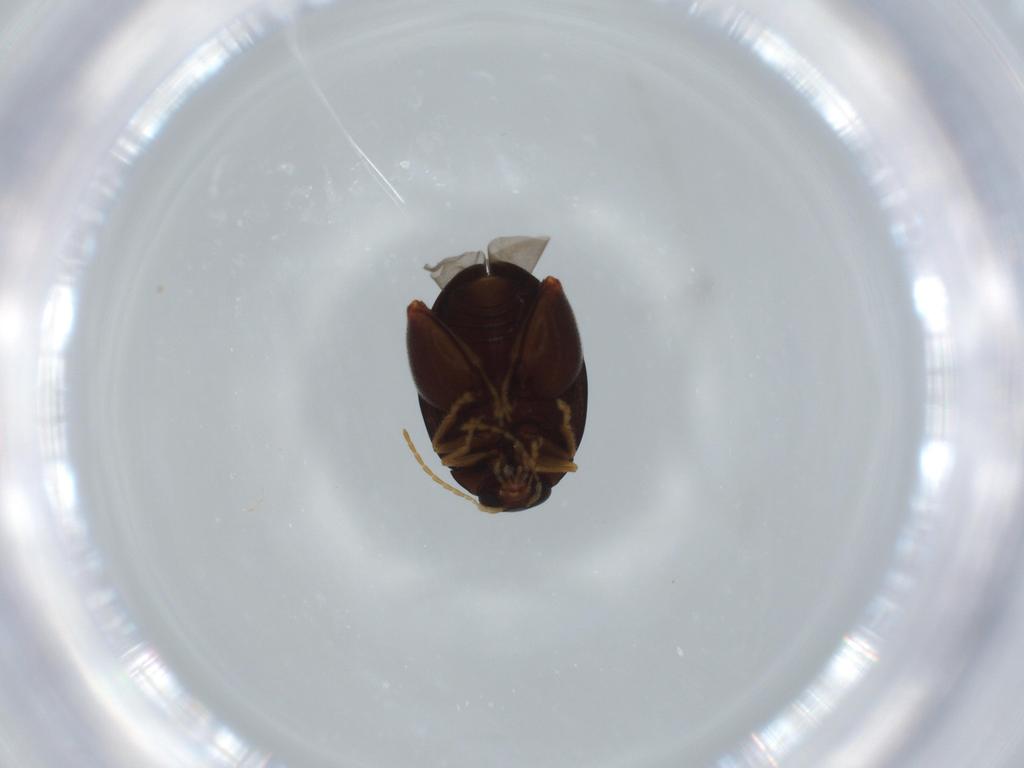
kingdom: Animalia
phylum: Arthropoda
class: Insecta
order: Coleoptera
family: Chrysomelidae
